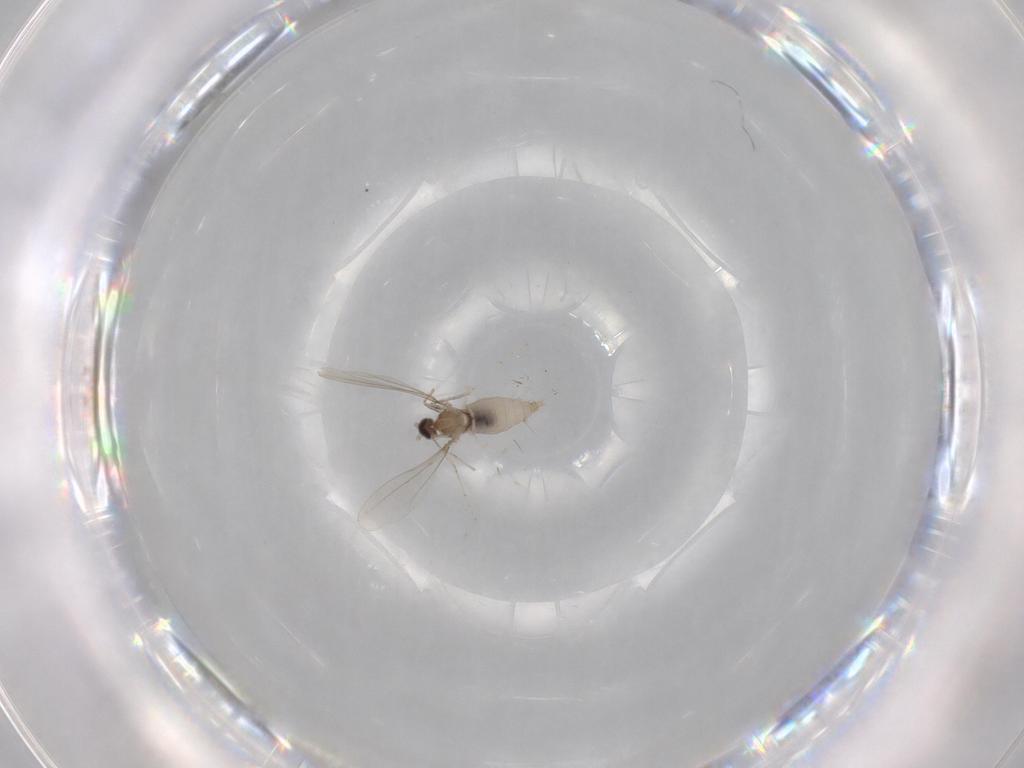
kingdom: Animalia
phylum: Arthropoda
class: Insecta
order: Diptera
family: Cecidomyiidae
